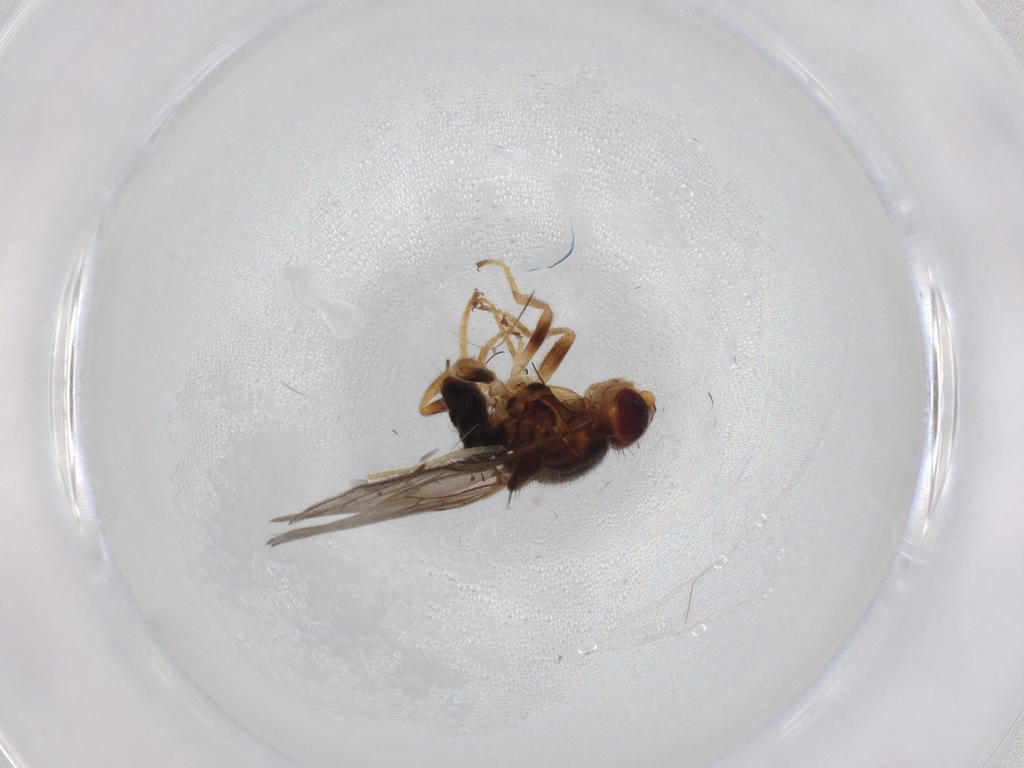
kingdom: Animalia
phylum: Arthropoda
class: Insecta
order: Diptera
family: Chloropidae
